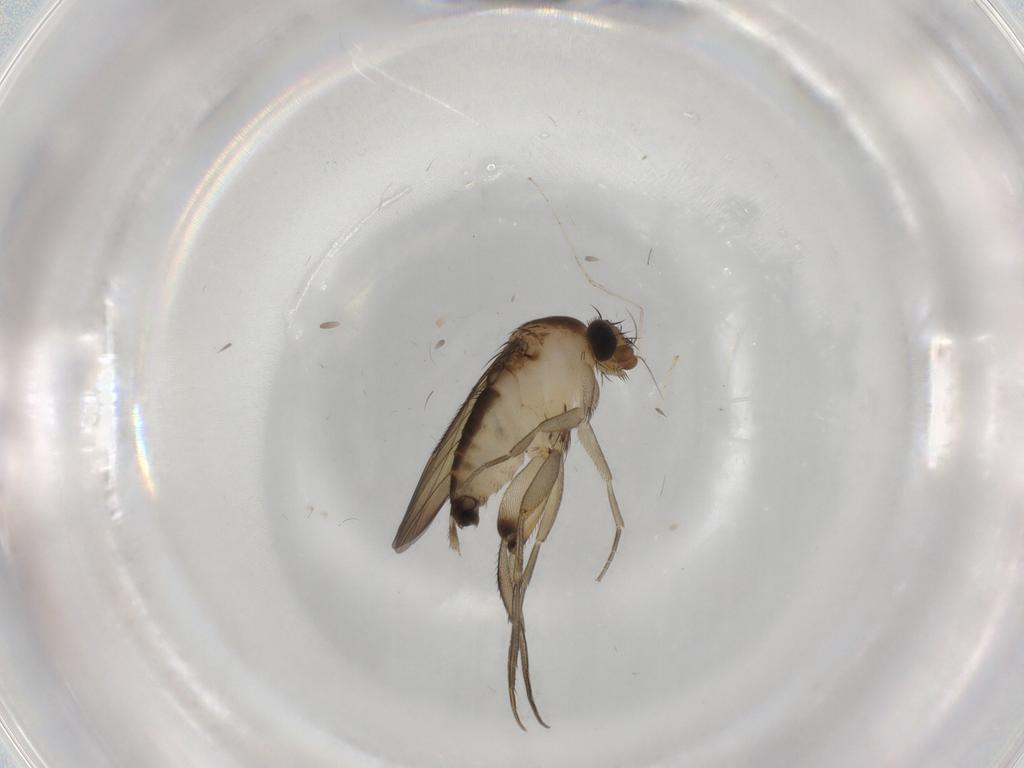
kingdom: Animalia
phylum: Arthropoda
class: Insecta
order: Diptera
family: Phoridae
